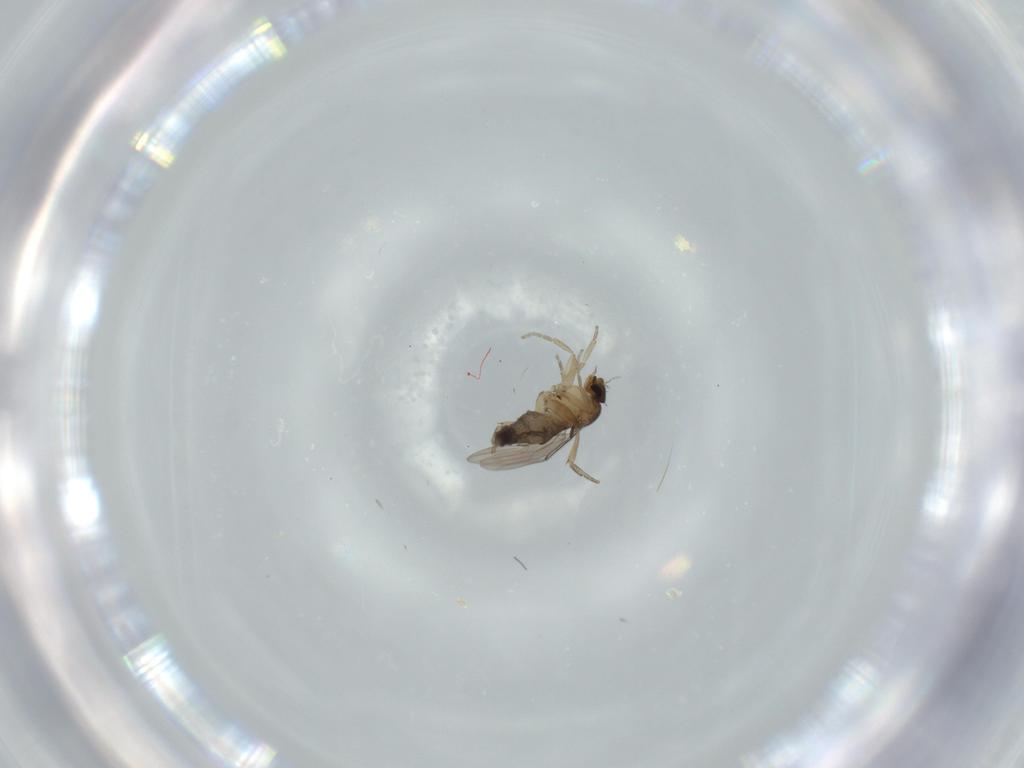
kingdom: Animalia
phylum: Arthropoda
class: Insecta
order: Diptera
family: Phoridae
